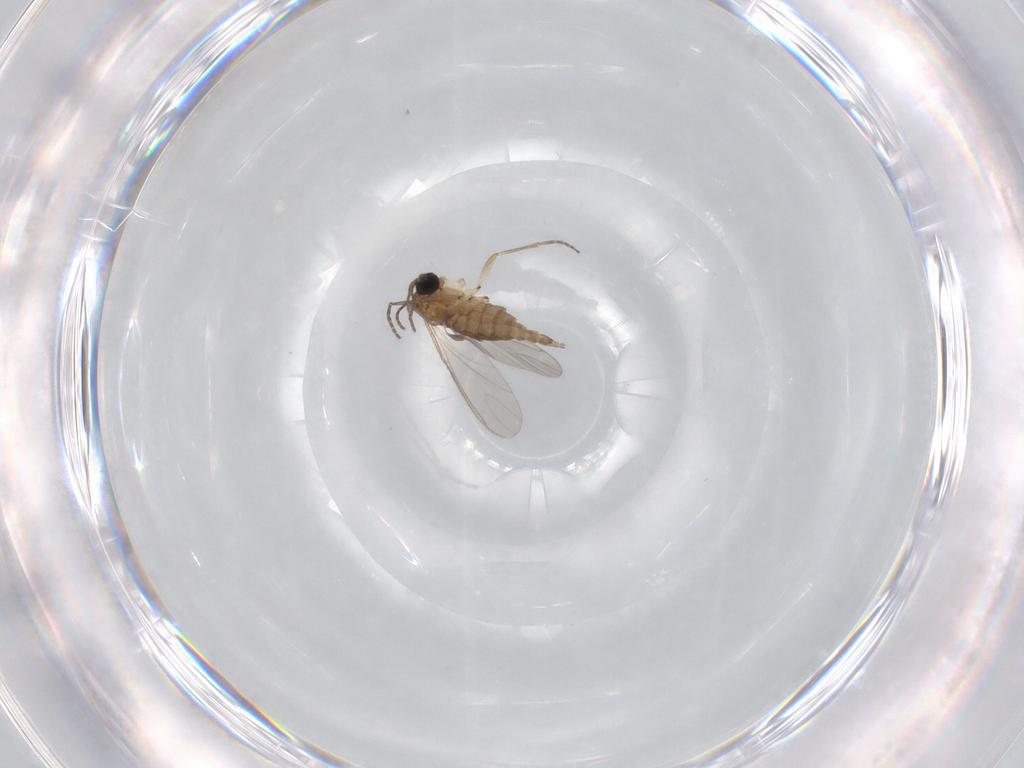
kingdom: Animalia
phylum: Arthropoda
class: Insecta
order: Diptera
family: Sciaridae
